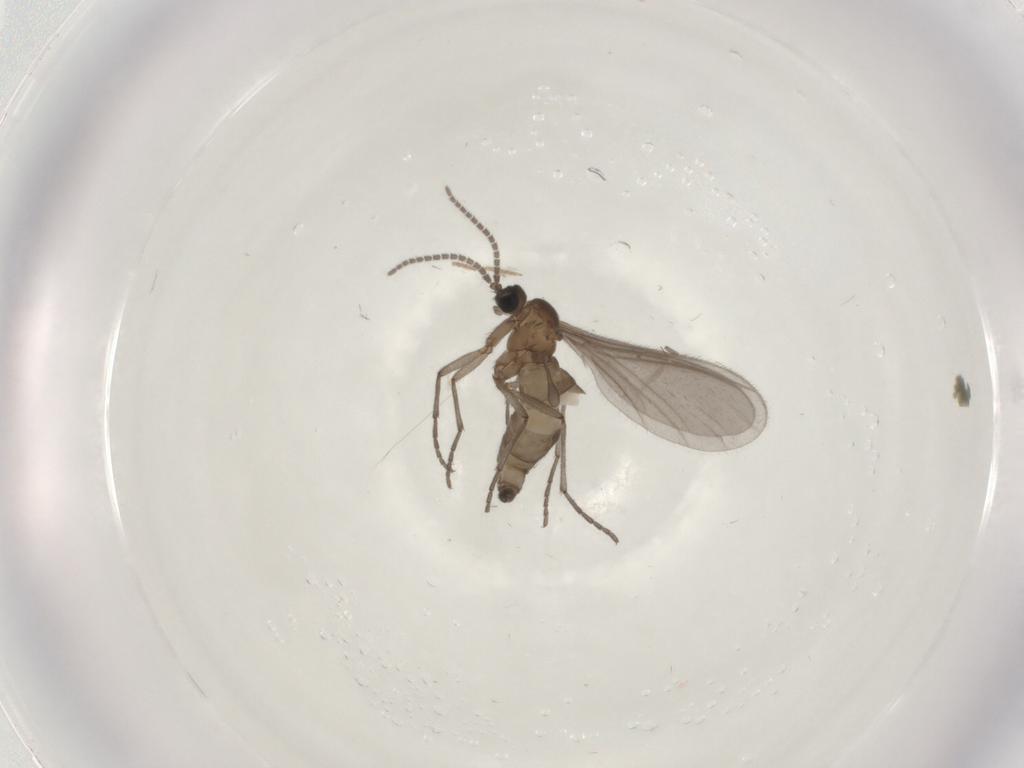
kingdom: Animalia
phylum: Arthropoda
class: Insecta
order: Diptera
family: Sciaridae
